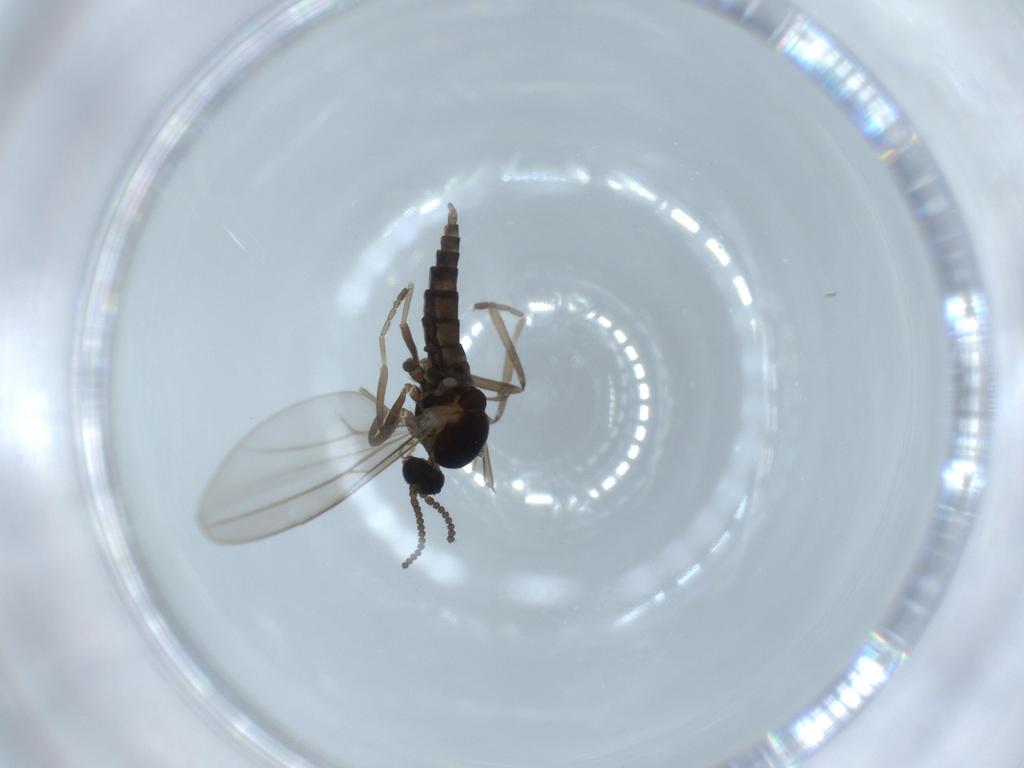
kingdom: Animalia
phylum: Arthropoda
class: Insecta
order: Diptera
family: Cecidomyiidae
